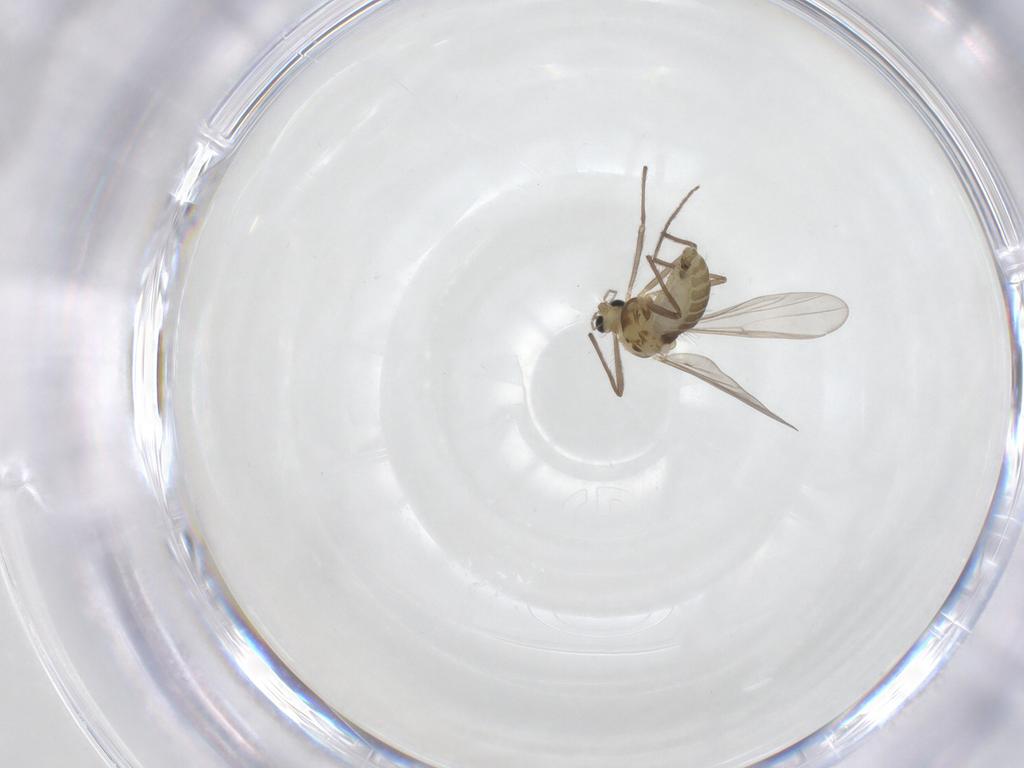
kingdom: Animalia
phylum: Arthropoda
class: Insecta
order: Diptera
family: Chironomidae
